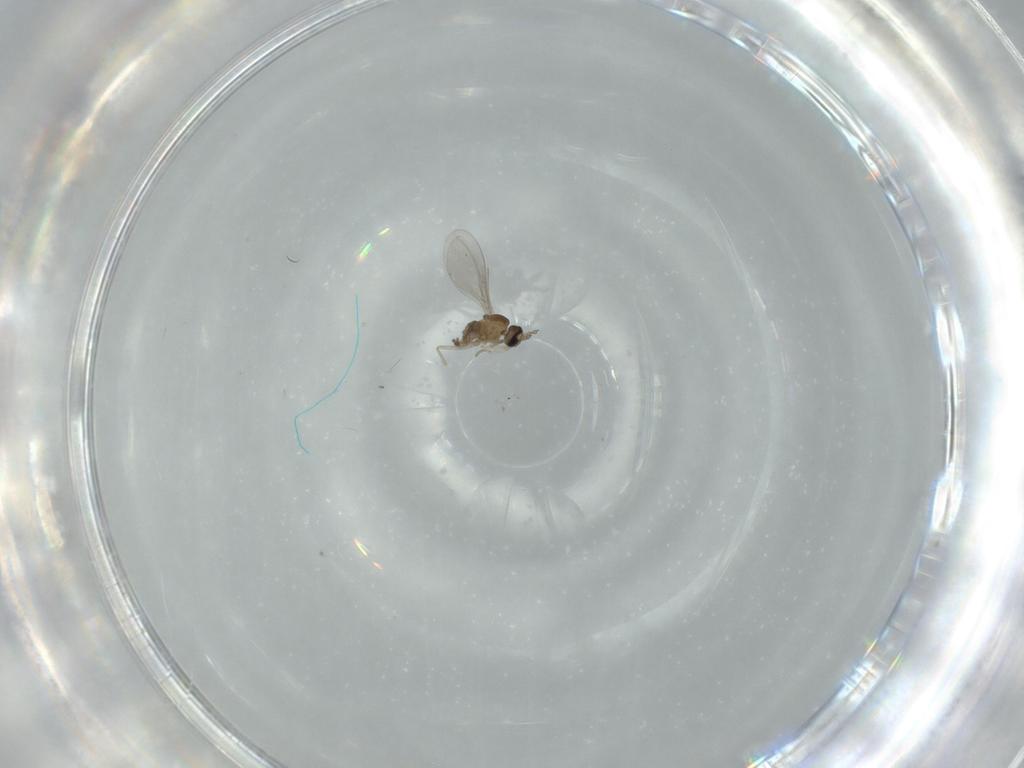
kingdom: Animalia
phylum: Arthropoda
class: Insecta
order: Diptera
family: Cecidomyiidae
